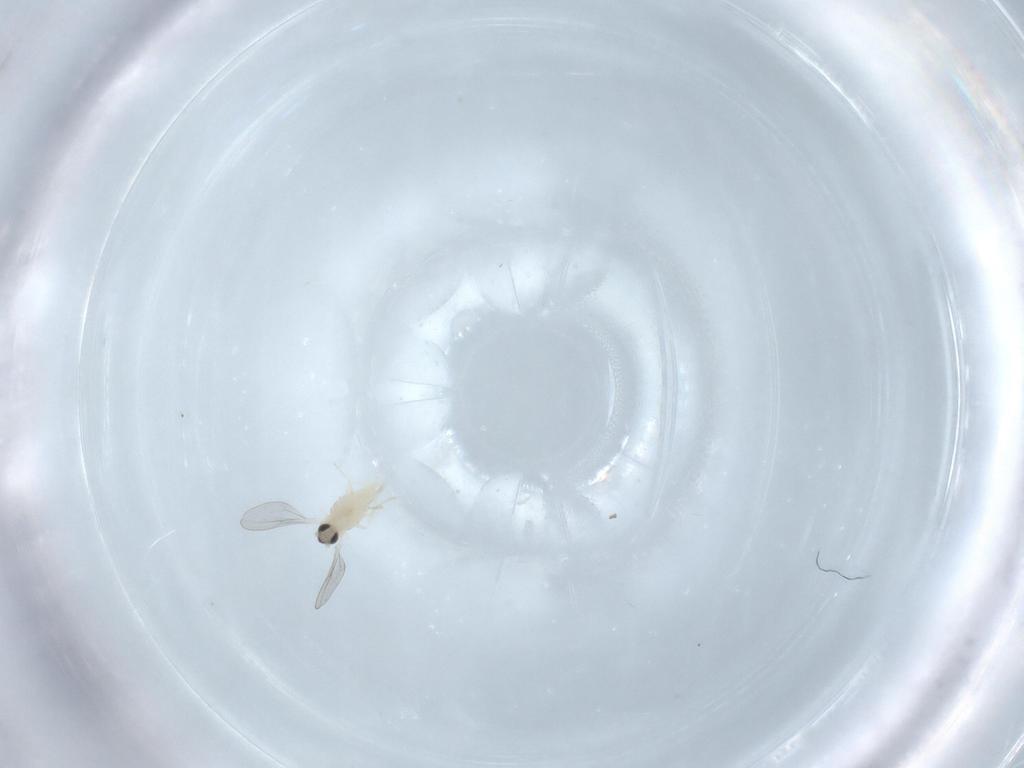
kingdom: Animalia
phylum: Arthropoda
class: Insecta
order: Diptera
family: Cecidomyiidae
